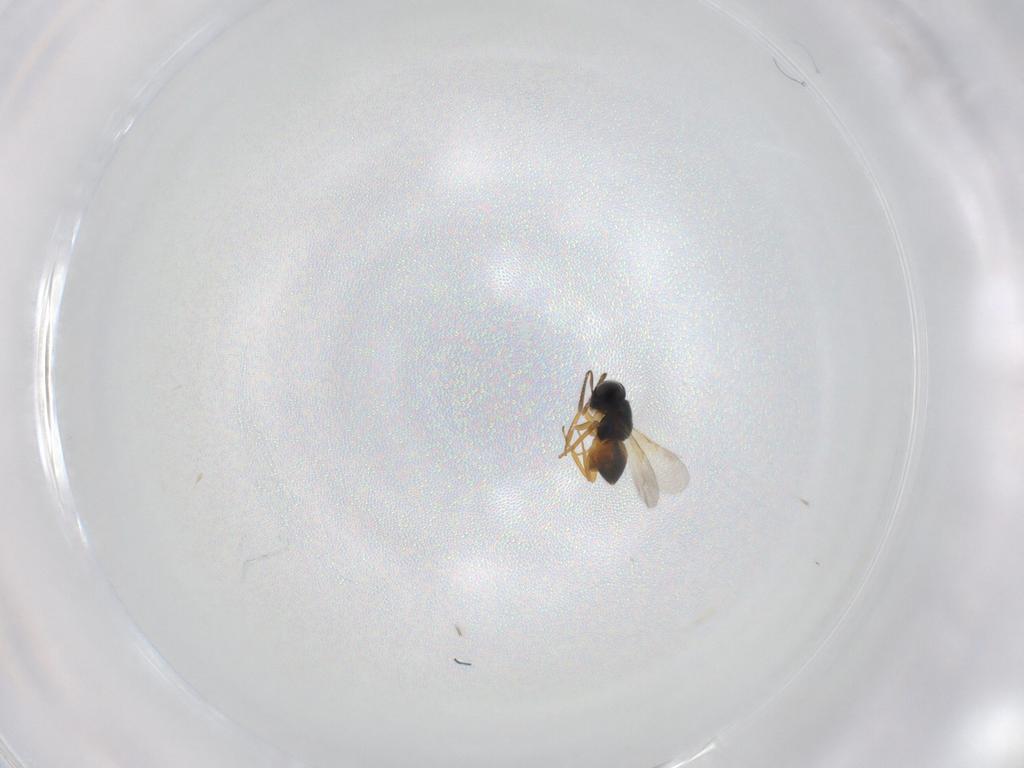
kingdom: Animalia
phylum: Arthropoda
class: Insecta
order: Hymenoptera
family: Encyrtidae
